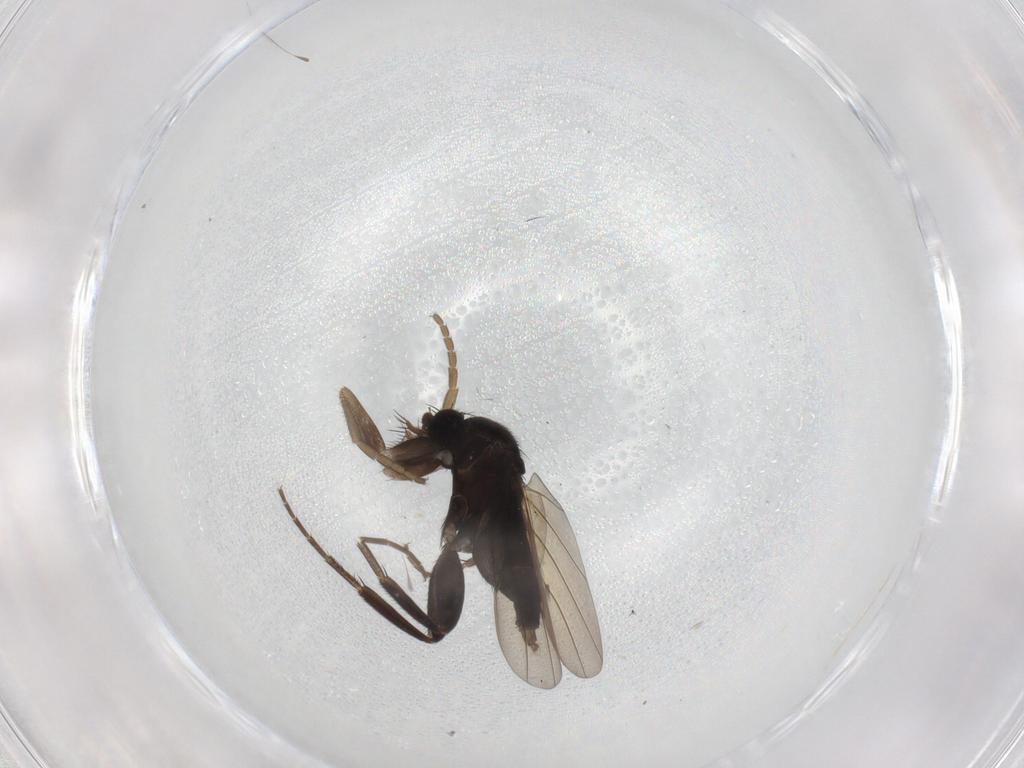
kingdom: Animalia
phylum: Arthropoda
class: Insecta
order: Diptera
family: Phoridae
